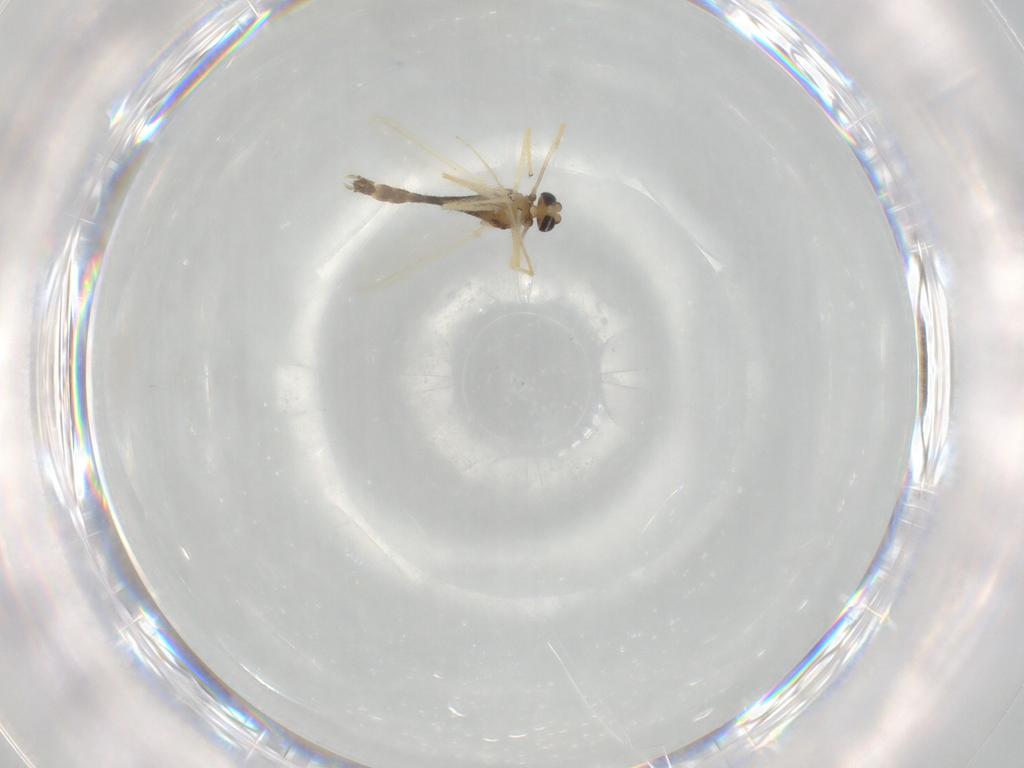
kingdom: Animalia
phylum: Arthropoda
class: Insecta
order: Diptera
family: Chironomidae
